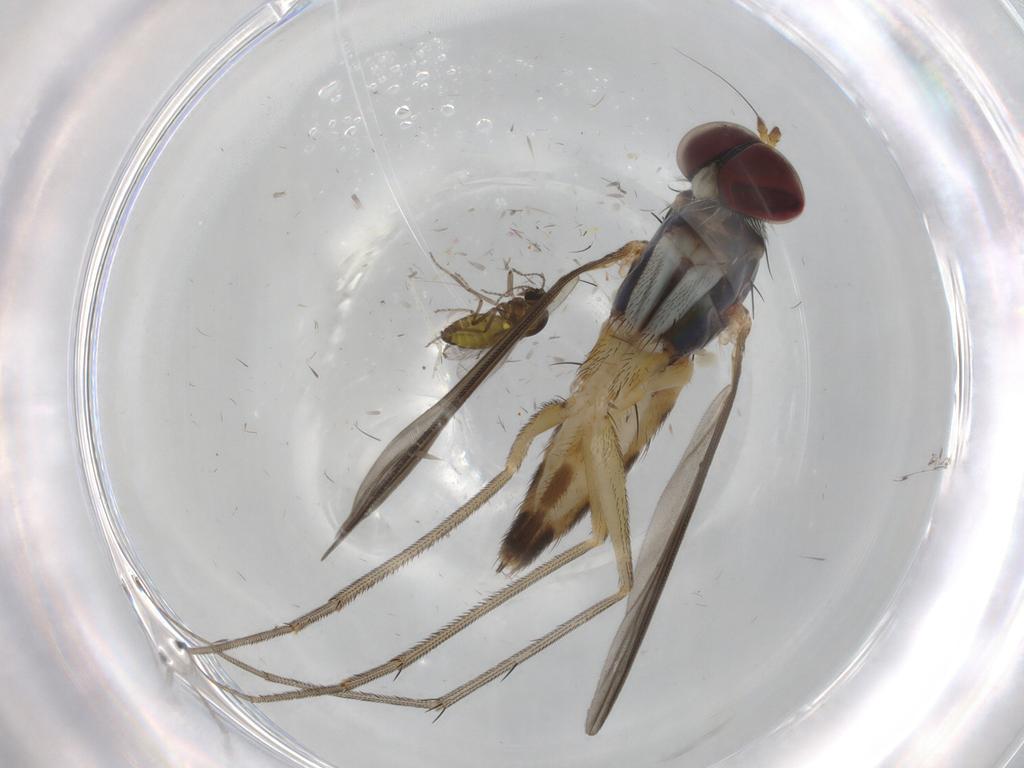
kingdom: Animalia
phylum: Arthropoda
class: Insecta
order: Diptera
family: Dolichopodidae
